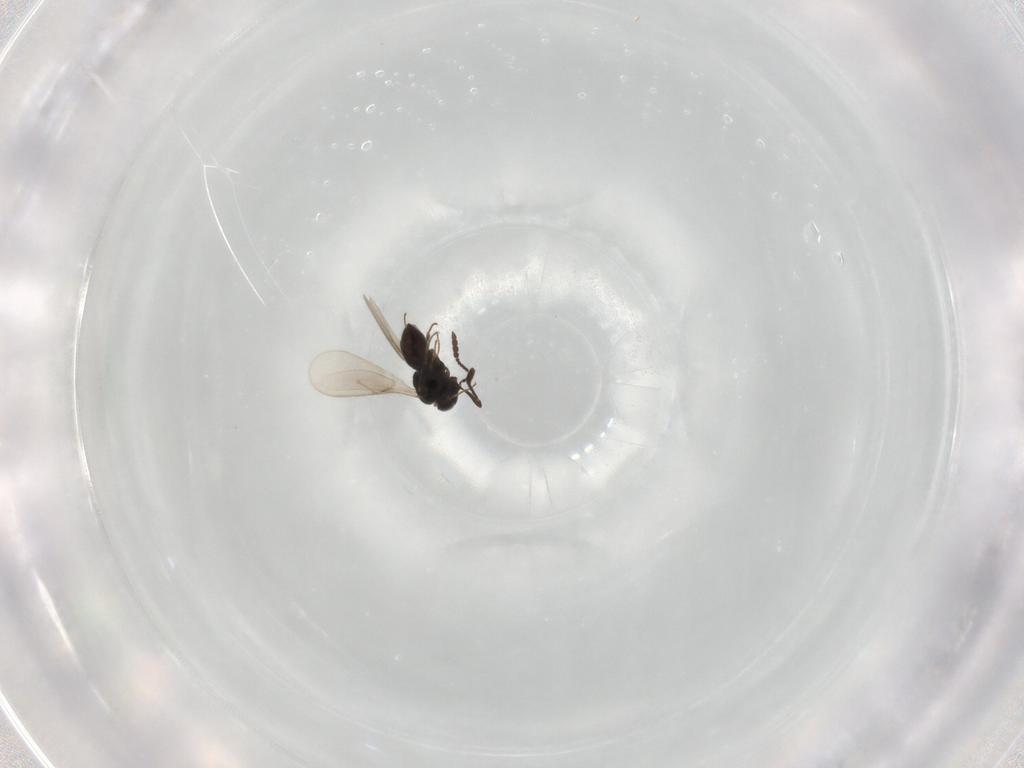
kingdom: Animalia
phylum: Arthropoda
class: Insecta
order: Hymenoptera
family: Scelionidae
